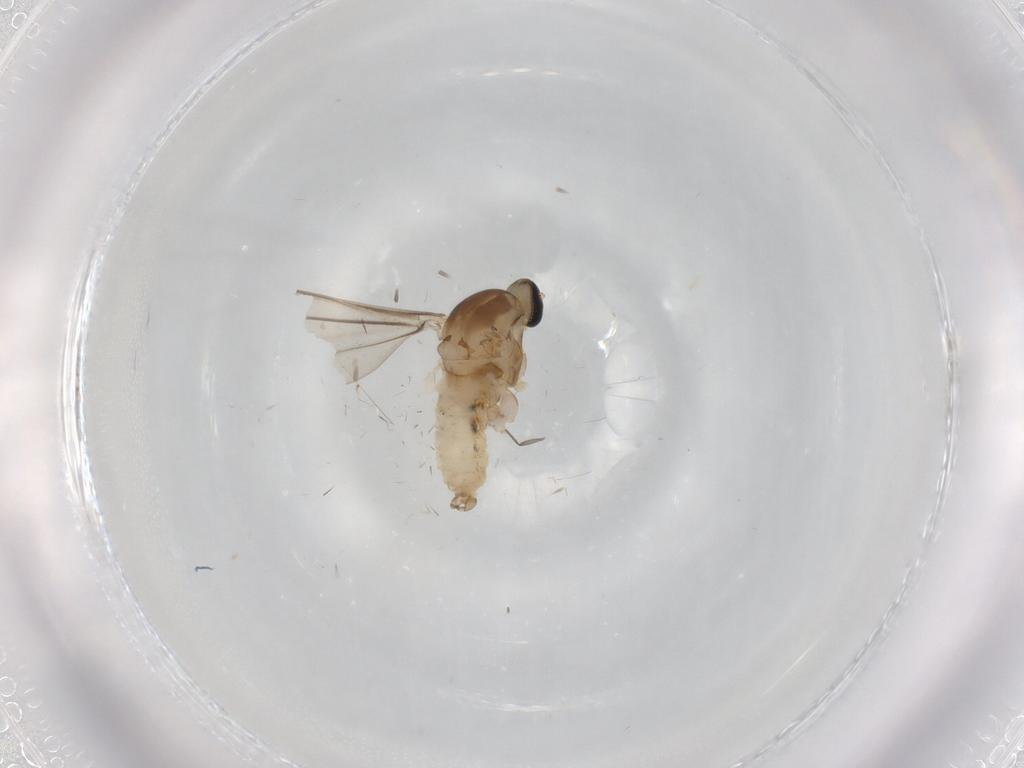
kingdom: Animalia
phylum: Arthropoda
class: Insecta
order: Diptera
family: Cecidomyiidae
